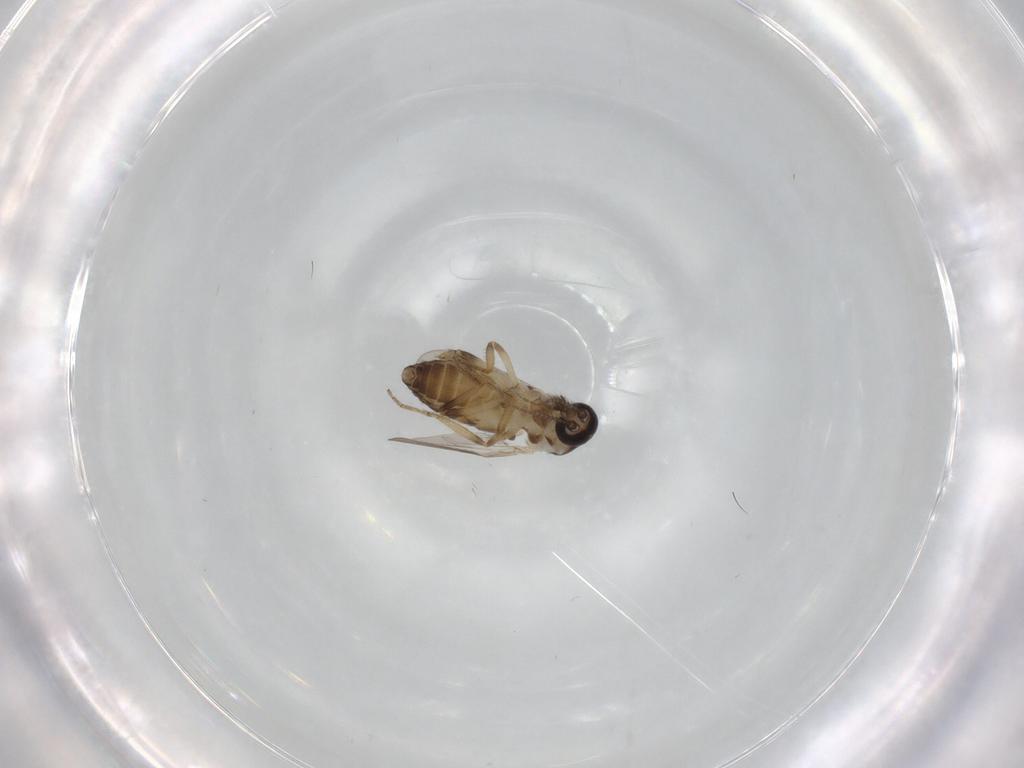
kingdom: Animalia
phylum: Arthropoda
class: Insecta
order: Diptera
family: Ceratopogonidae
